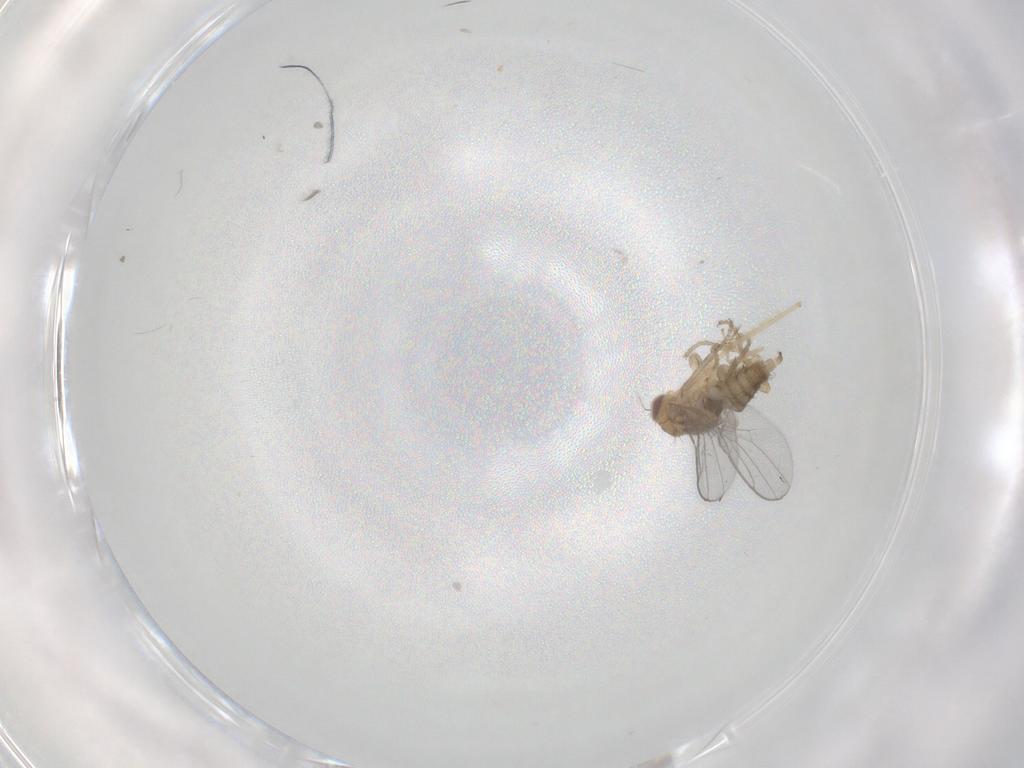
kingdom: Animalia
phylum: Arthropoda
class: Insecta
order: Diptera
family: Chloropidae
